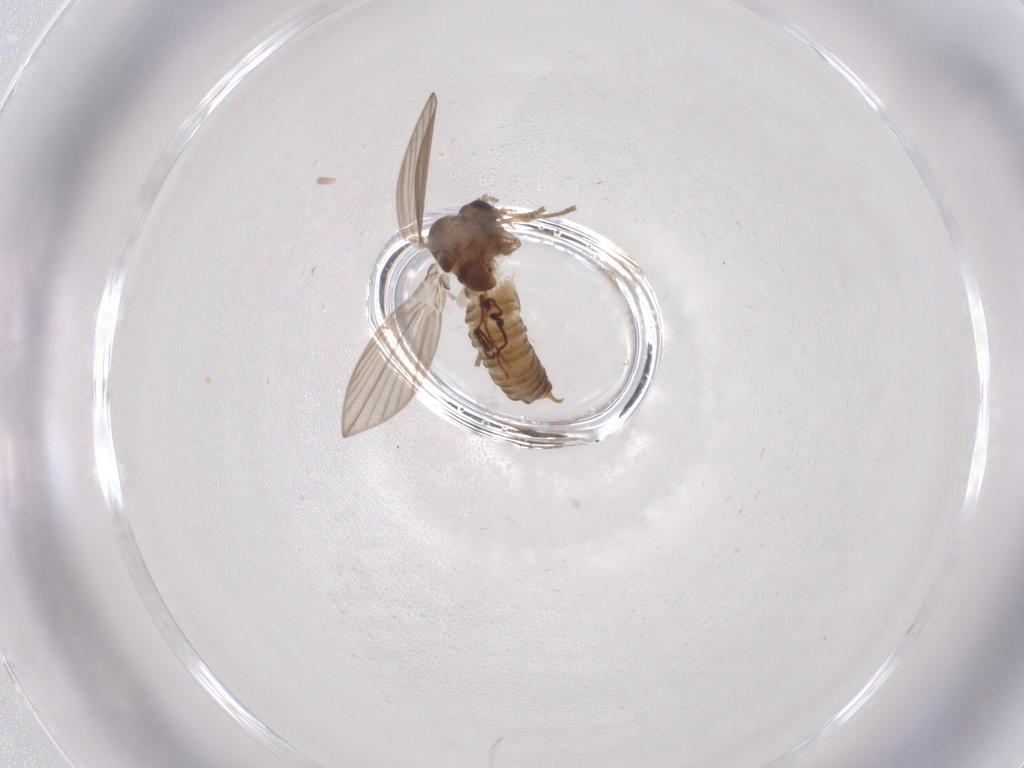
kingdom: Animalia
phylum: Arthropoda
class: Insecta
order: Diptera
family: Psychodidae
